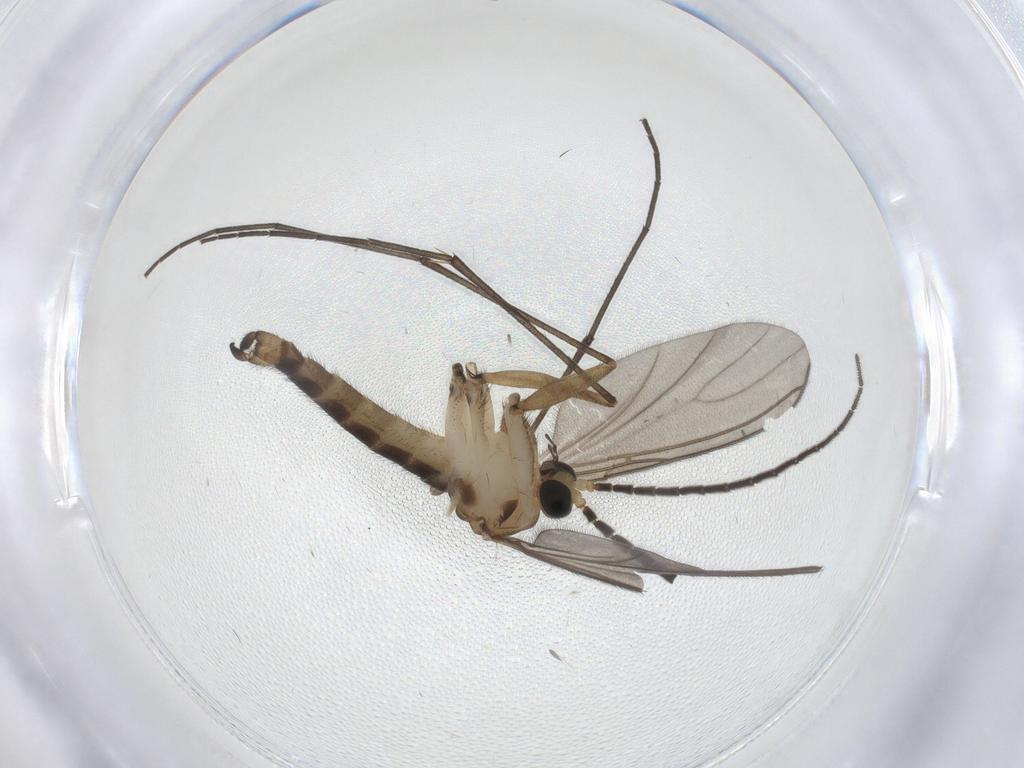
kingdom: Animalia
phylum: Arthropoda
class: Insecta
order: Diptera
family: Sciaridae
